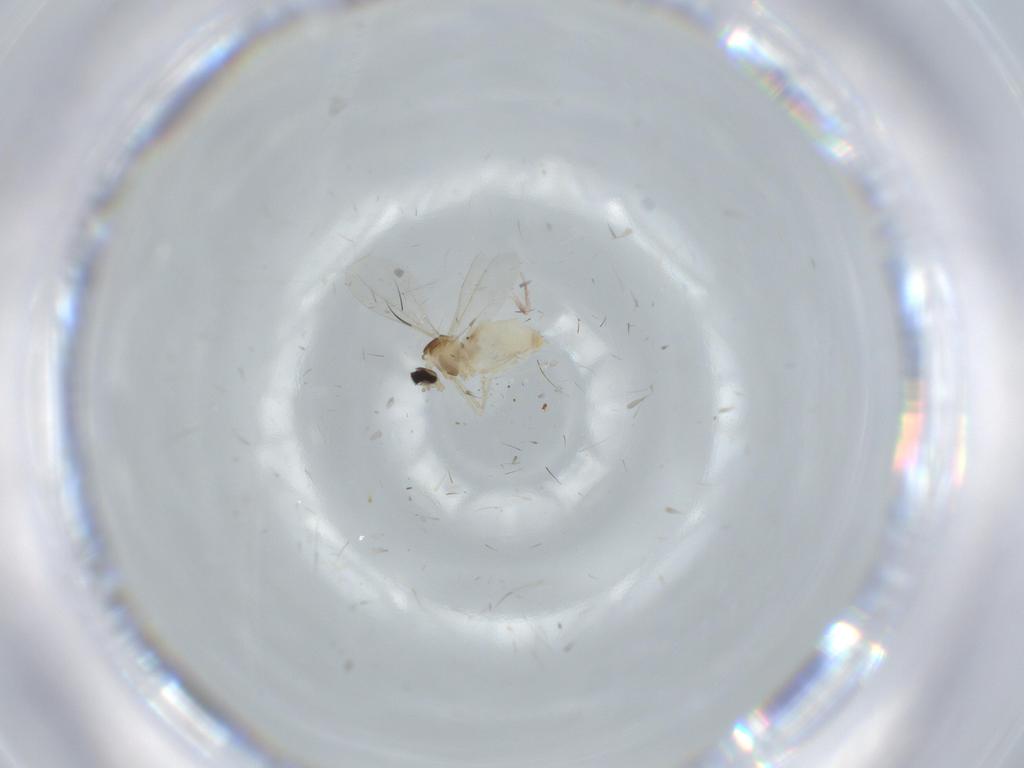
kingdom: Animalia
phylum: Arthropoda
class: Insecta
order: Diptera
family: Cecidomyiidae
